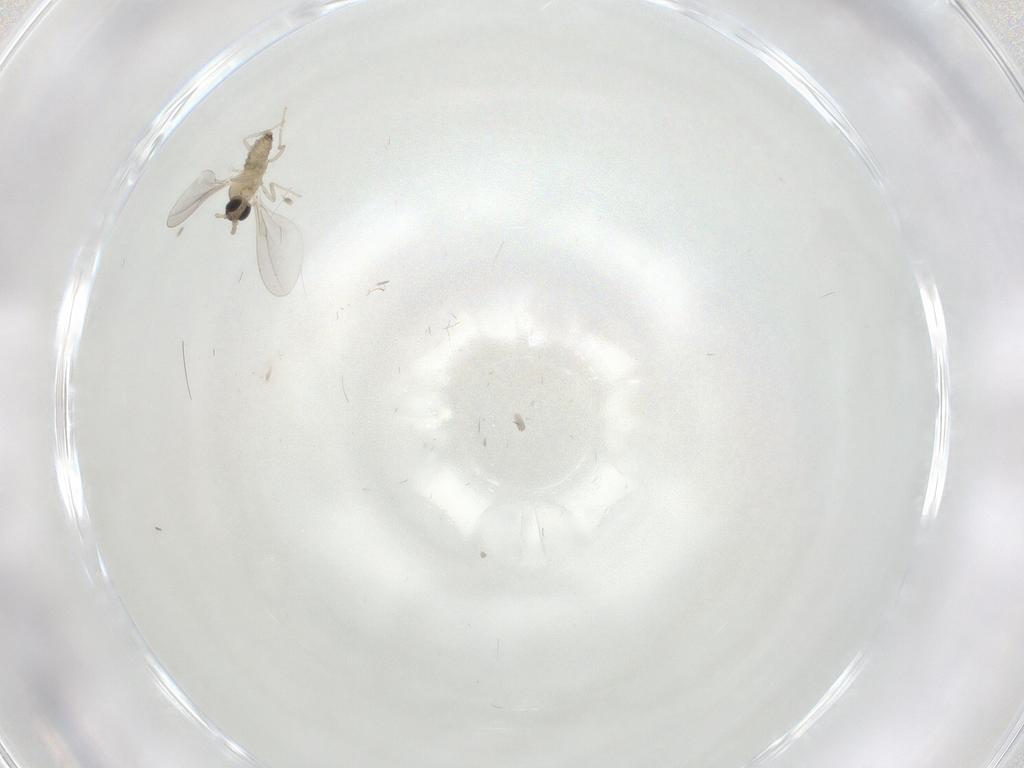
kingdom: Animalia
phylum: Arthropoda
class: Insecta
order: Diptera
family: Cecidomyiidae
